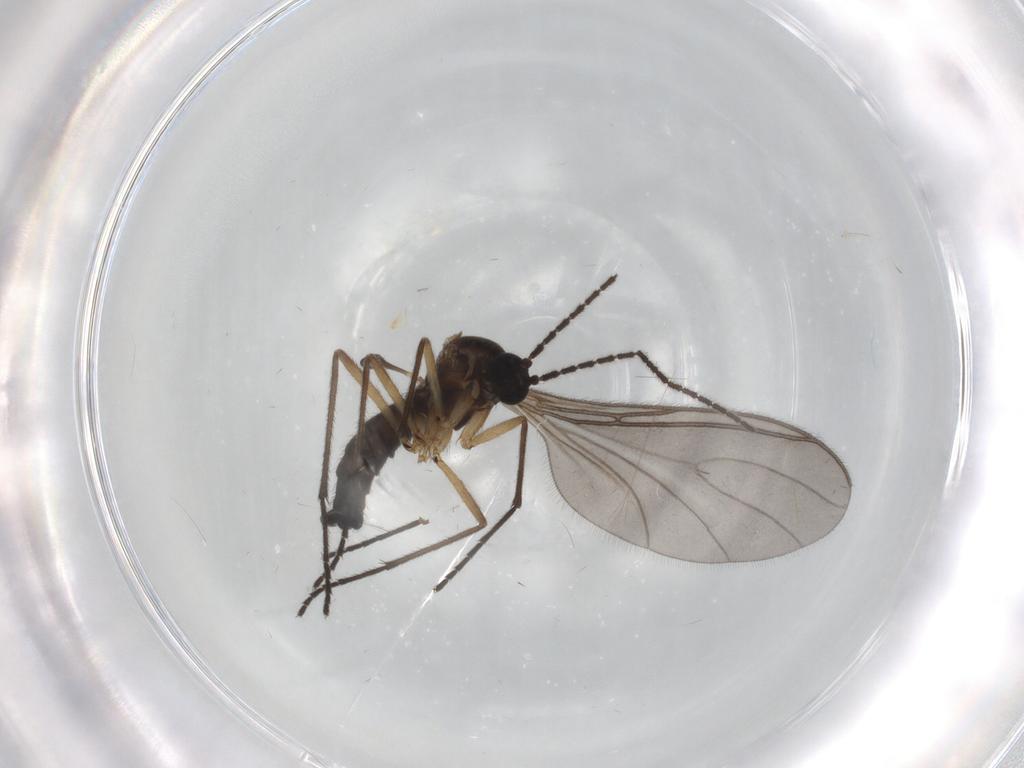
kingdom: Animalia
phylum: Arthropoda
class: Insecta
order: Diptera
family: Sciaridae
